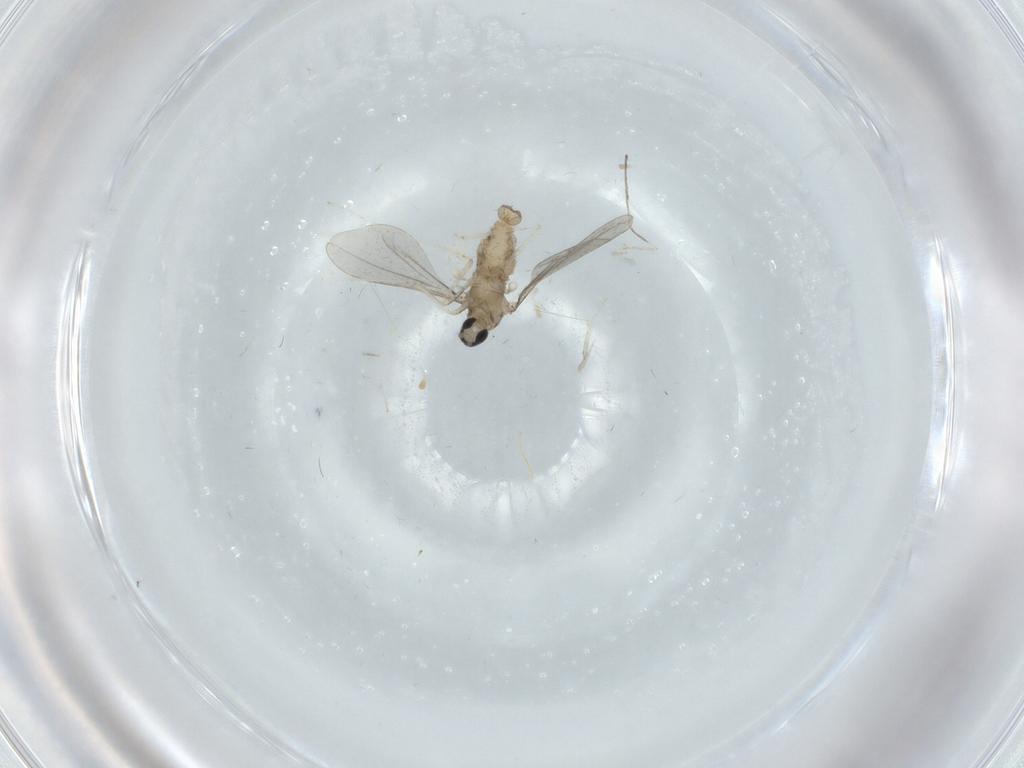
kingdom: Animalia
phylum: Arthropoda
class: Insecta
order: Diptera
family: Cecidomyiidae
